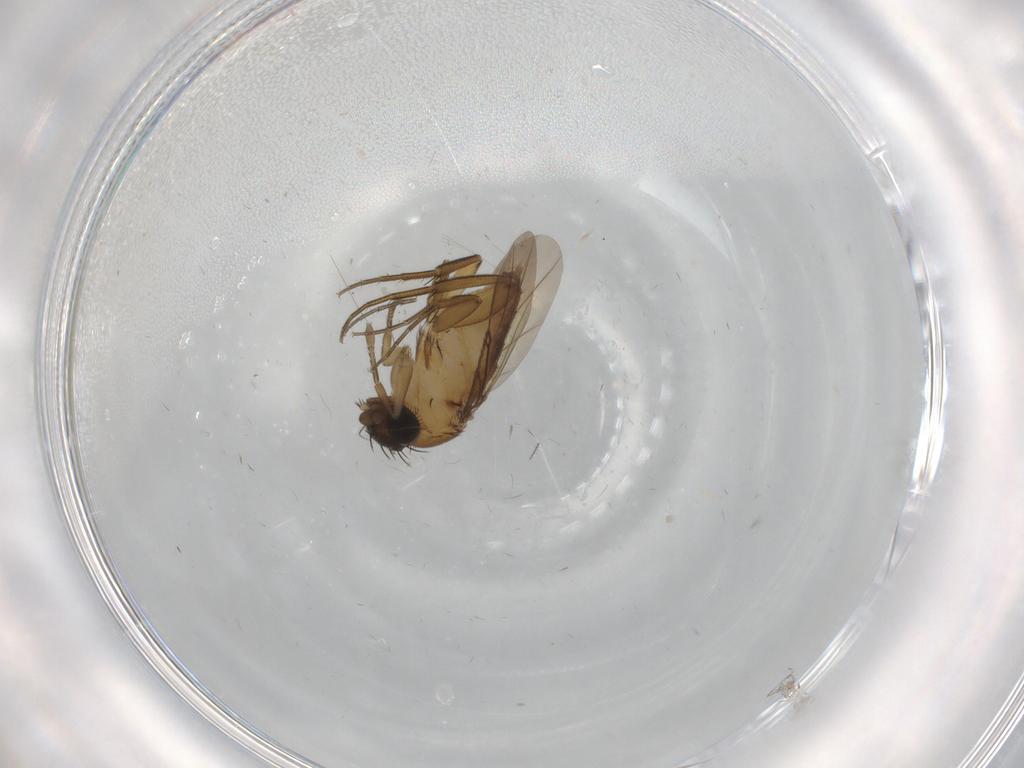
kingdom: Animalia
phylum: Arthropoda
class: Insecta
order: Diptera
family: Phoridae
